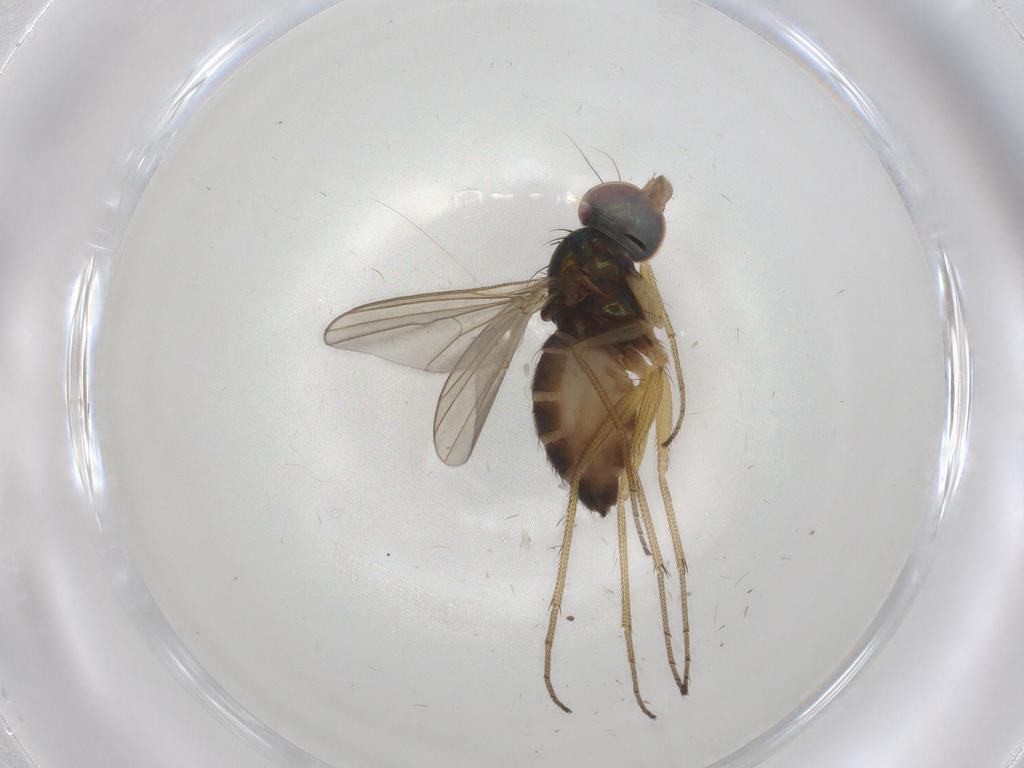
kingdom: Animalia
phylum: Arthropoda
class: Insecta
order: Diptera
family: Dolichopodidae
